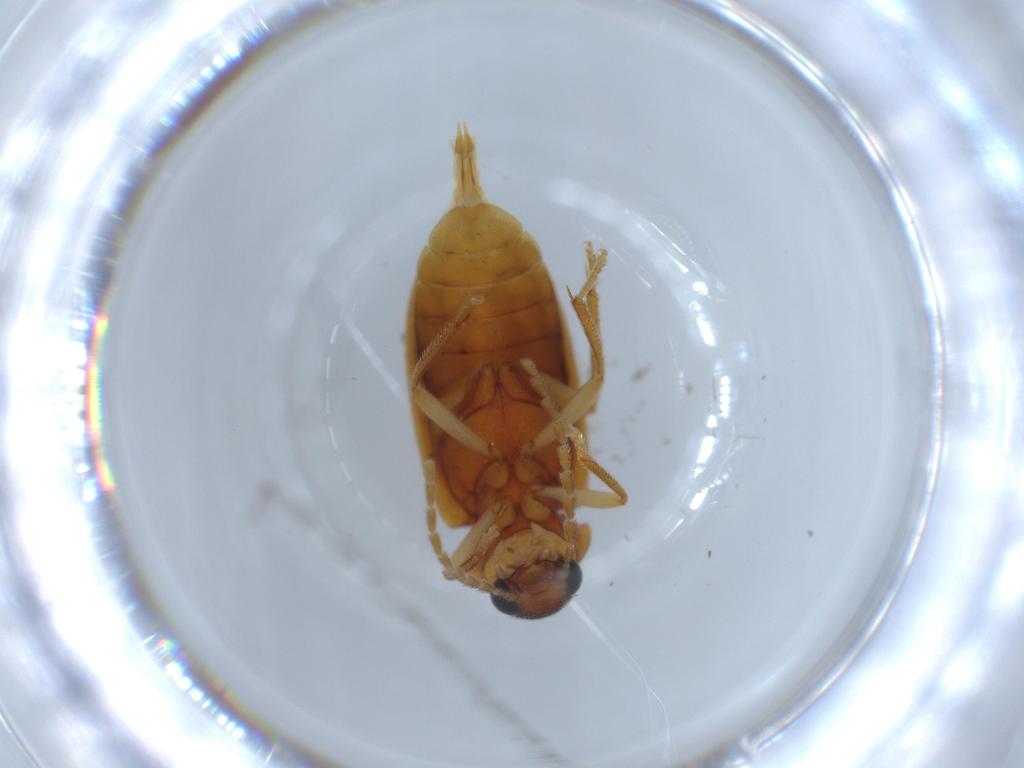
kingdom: Animalia
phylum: Arthropoda
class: Insecta
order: Coleoptera
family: Ptilodactylidae
